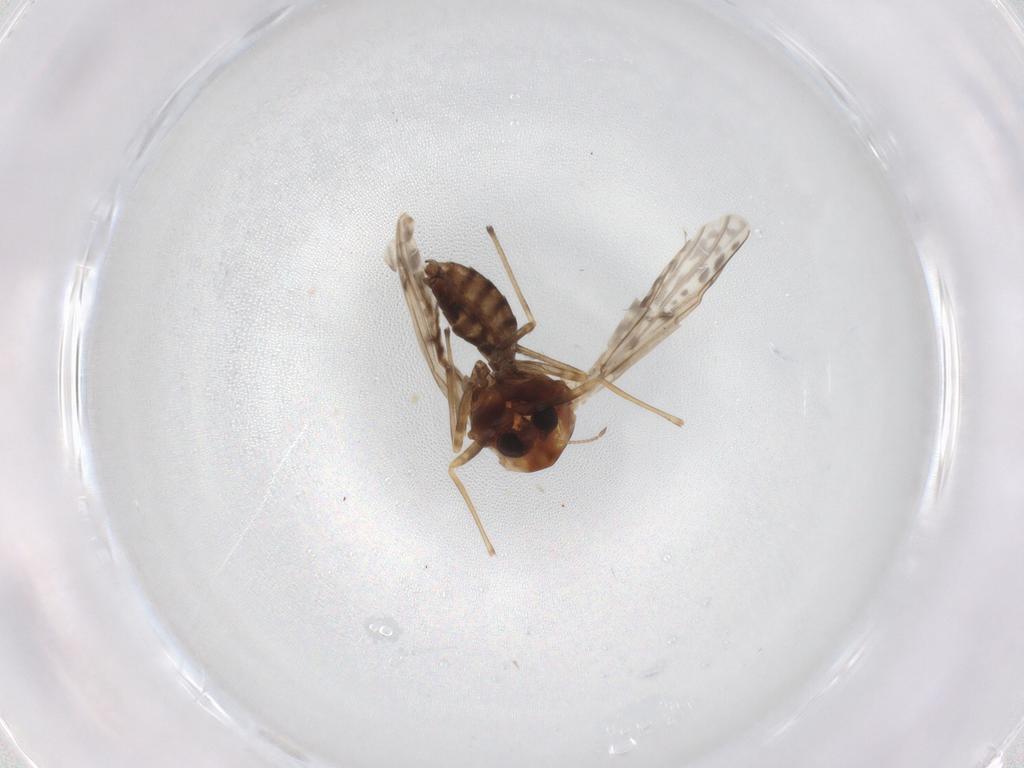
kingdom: Animalia
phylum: Arthropoda
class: Insecta
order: Diptera
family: Chironomidae
